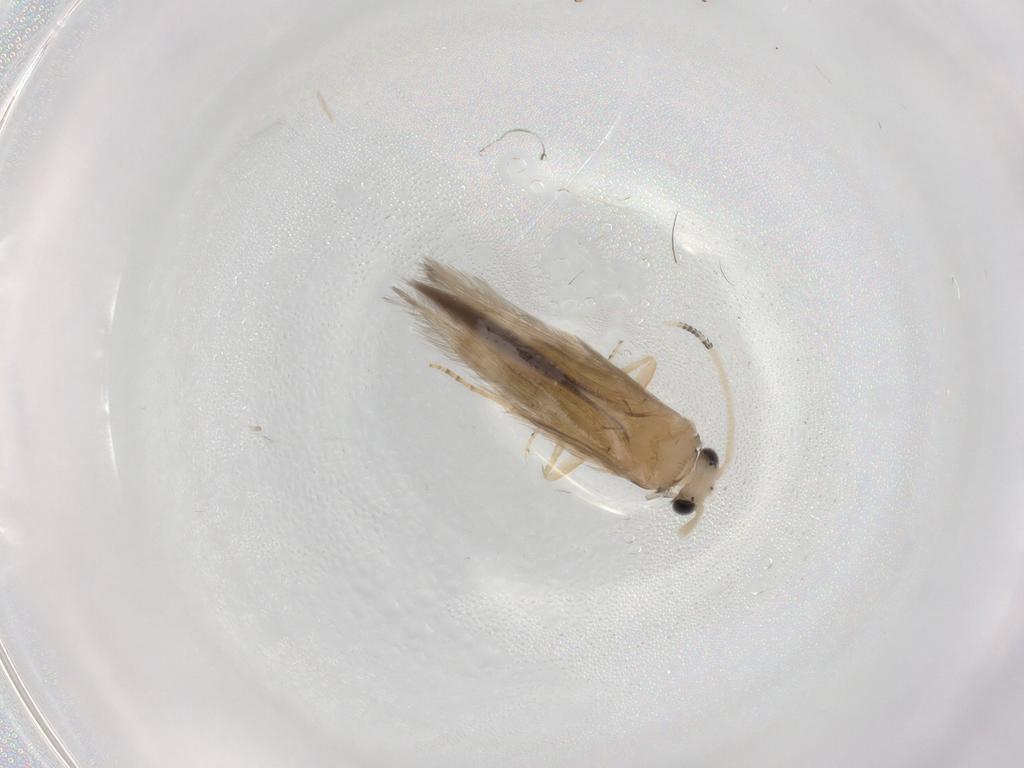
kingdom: Animalia
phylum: Arthropoda
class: Insecta
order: Trichoptera
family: Hydroptilidae
